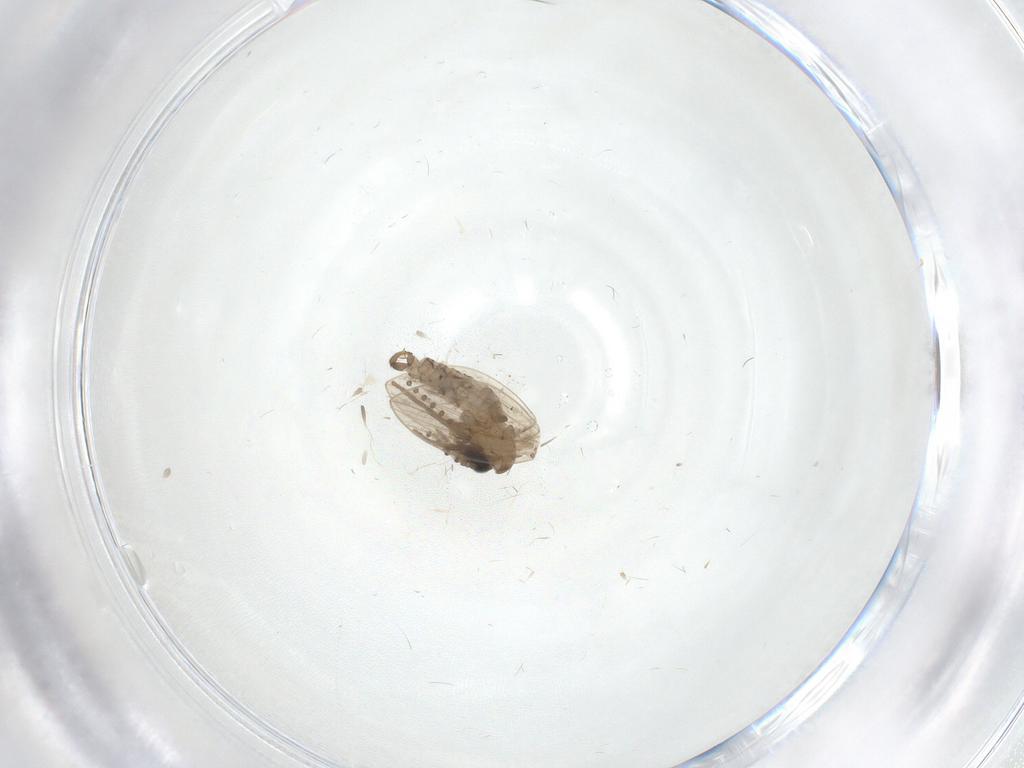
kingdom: Animalia
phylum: Arthropoda
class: Insecta
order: Diptera
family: Psychodidae
